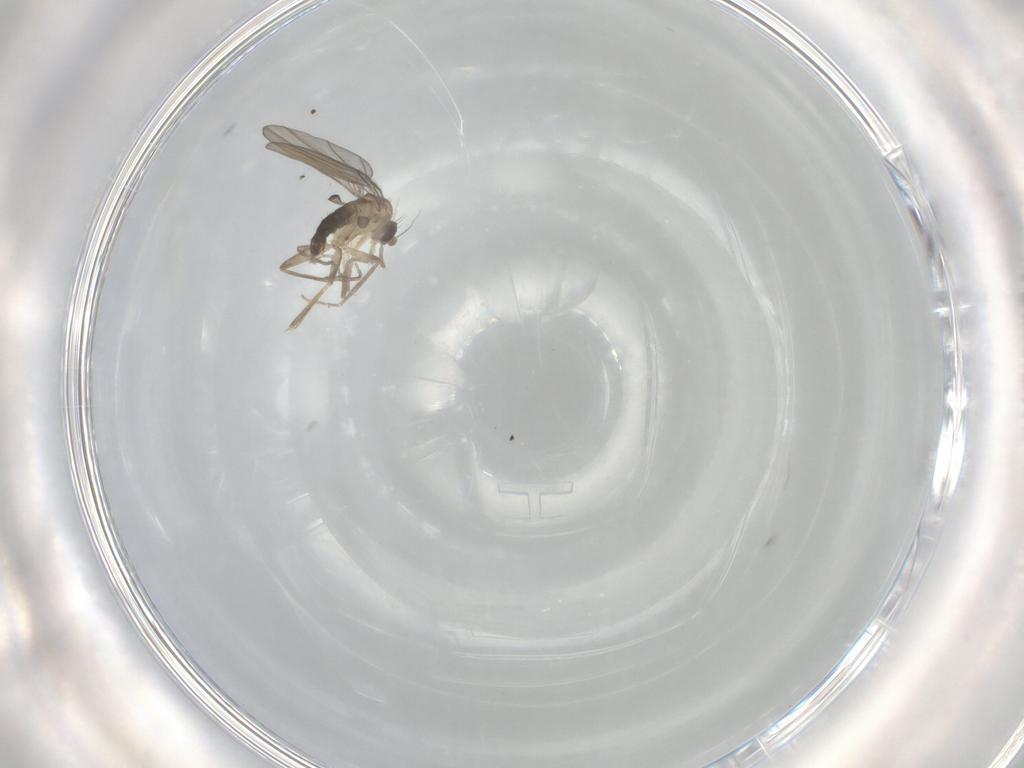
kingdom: Animalia
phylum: Arthropoda
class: Insecta
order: Diptera
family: Phoridae
